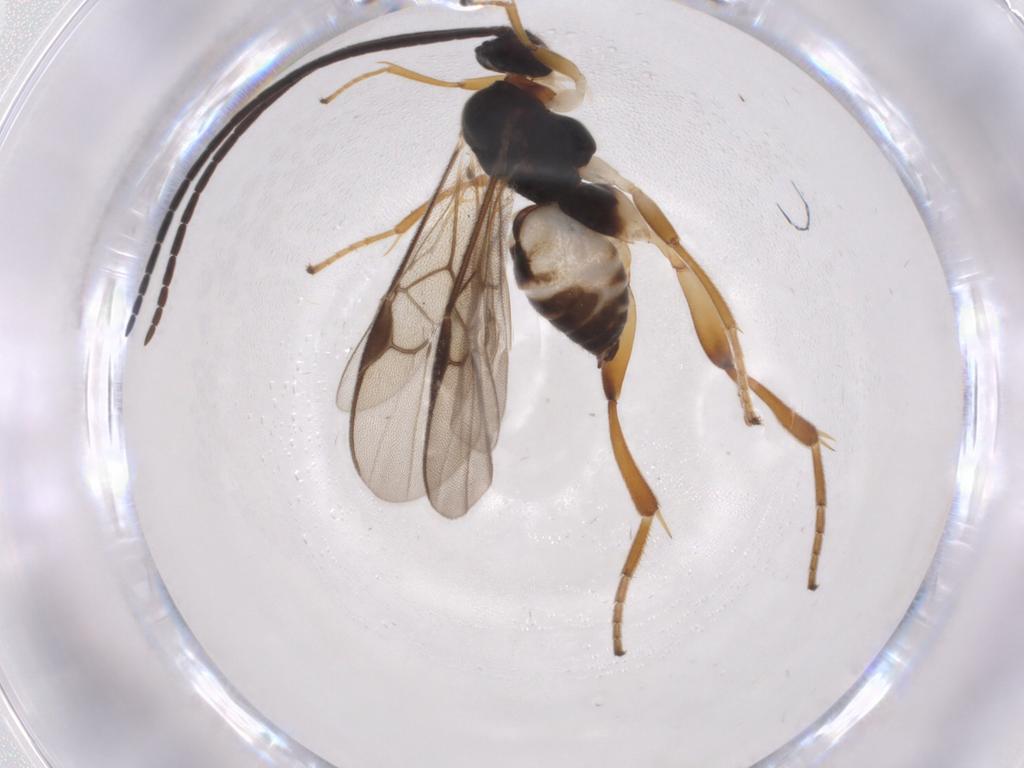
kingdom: Animalia
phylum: Arthropoda
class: Insecta
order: Hymenoptera
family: Braconidae
